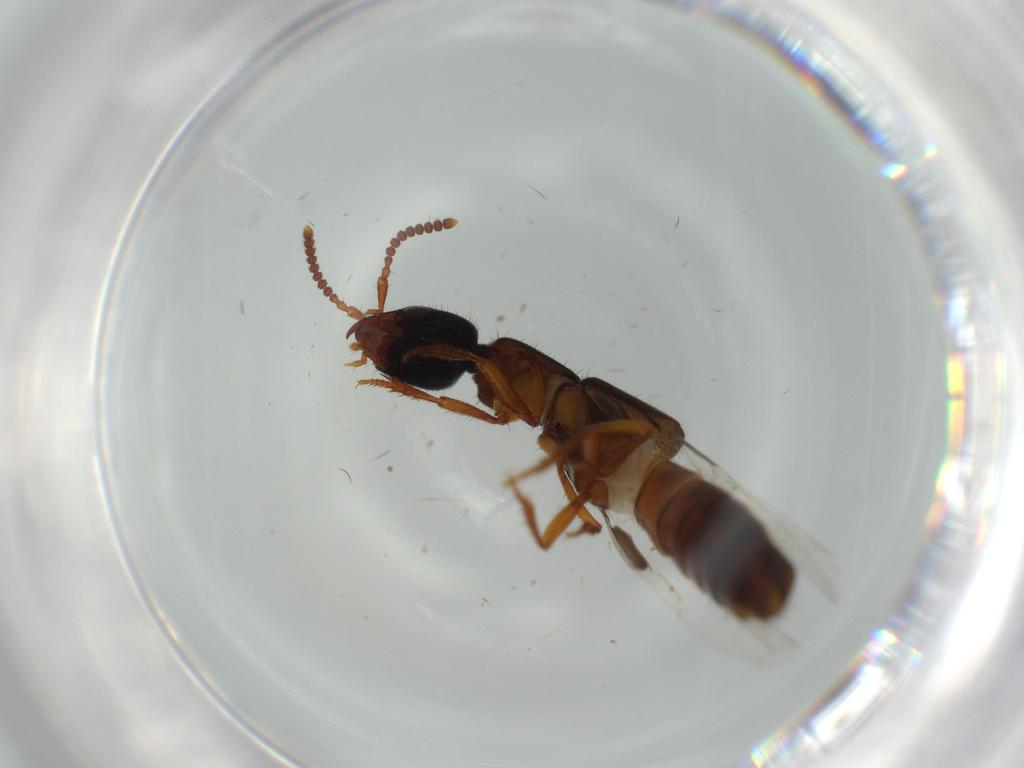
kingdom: Animalia
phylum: Arthropoda
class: Insecta
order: Coleoptera
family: Staphylinidae
